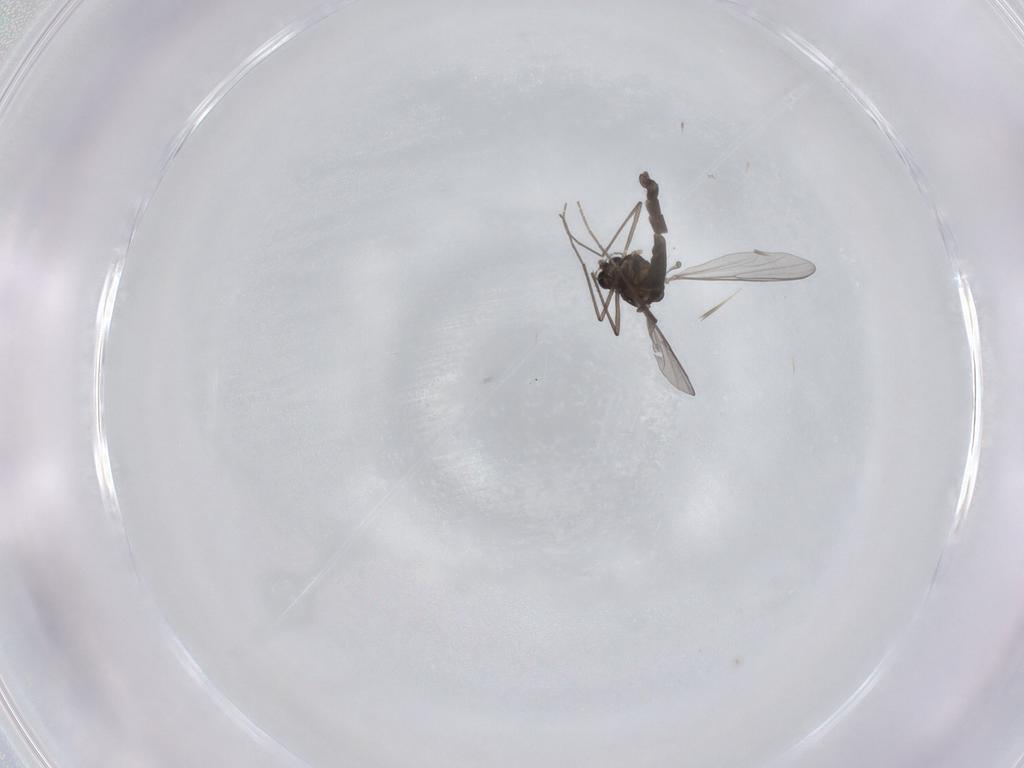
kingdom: Animalia
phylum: Arthropoda
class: Insecta
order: Diptera
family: Chironomidae
